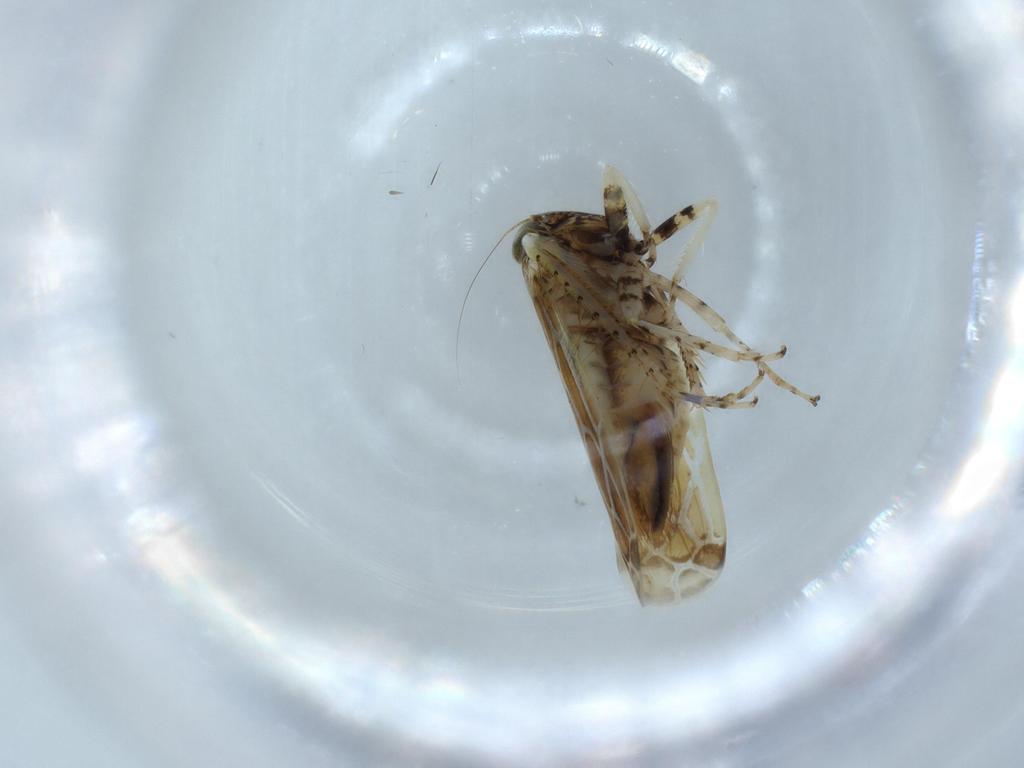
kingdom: Animalia
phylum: Arthropoda
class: Insecta
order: Hemiptera
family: Cicadellidae
